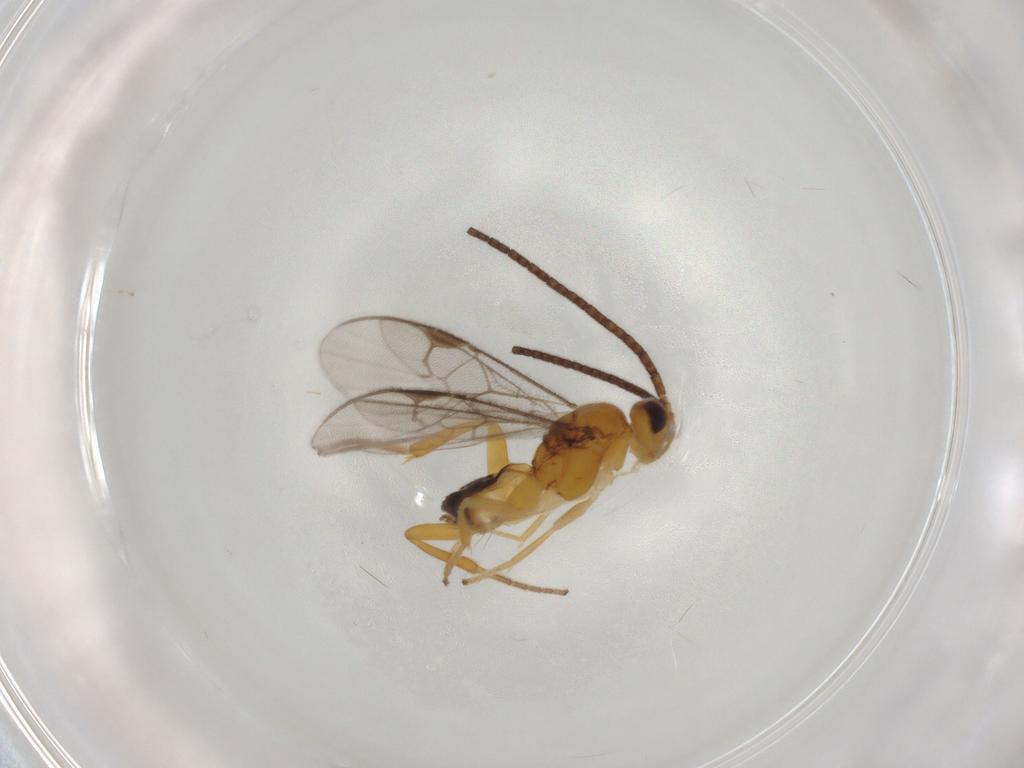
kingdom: Animalia
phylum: Arthropoda
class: Insecta
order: Hymenoptera
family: Braconidae
